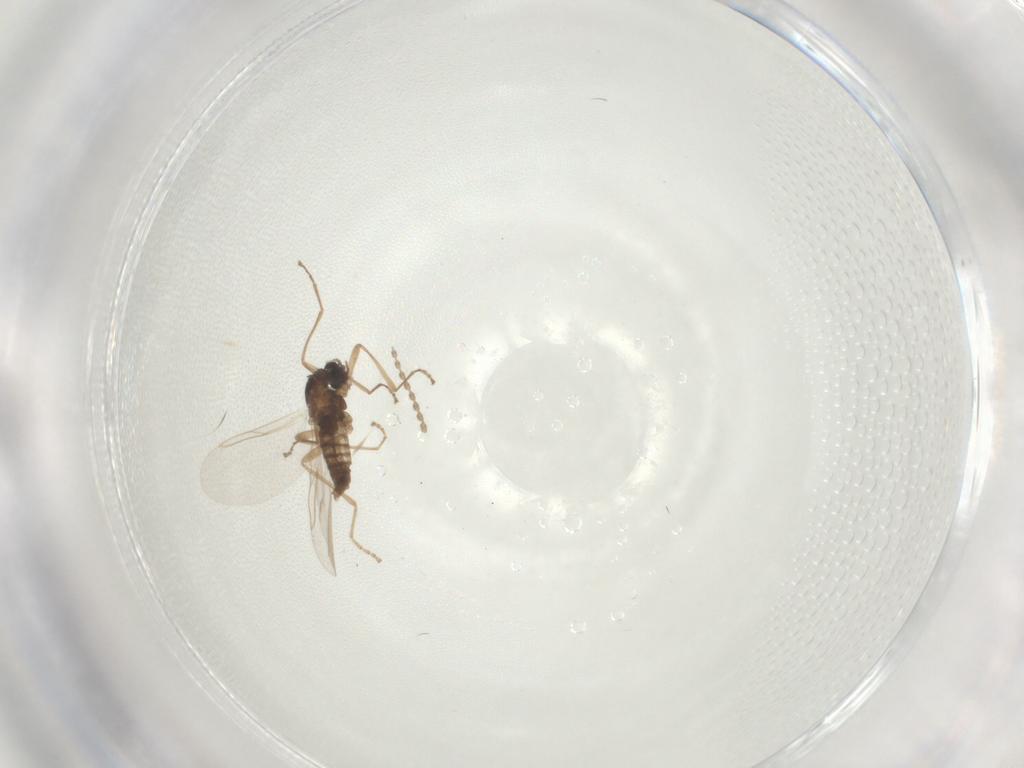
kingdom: Animalia
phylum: Arthropoda
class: Insecta
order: Diptera
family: Cecidomyiidae
